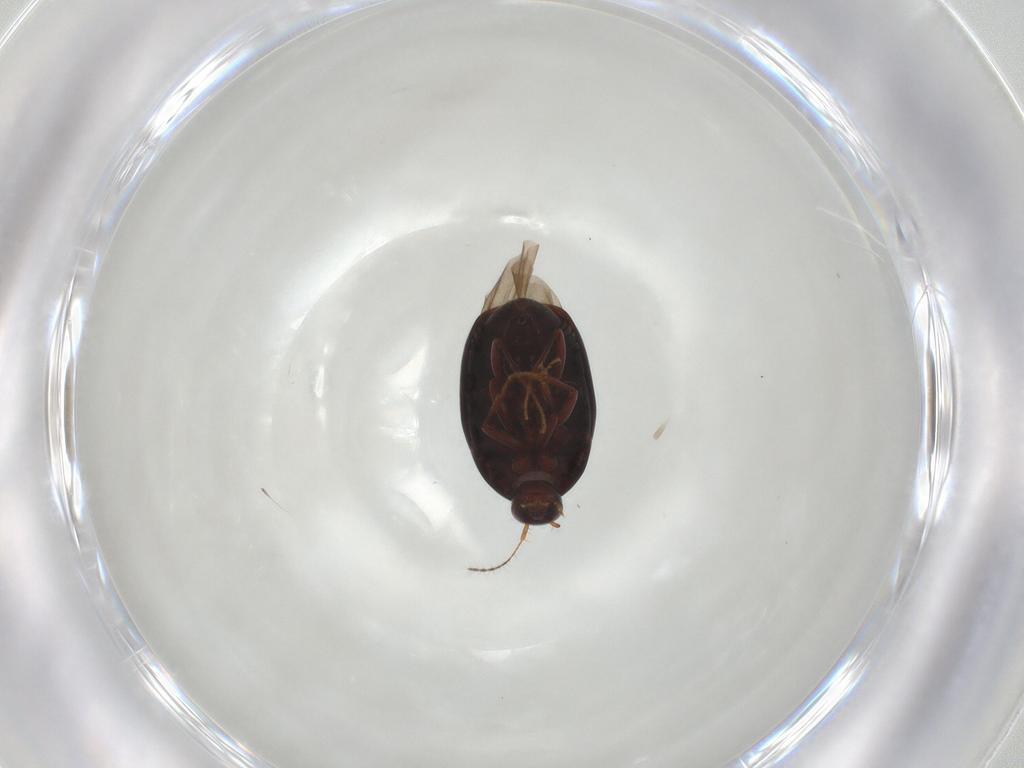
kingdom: Animalia
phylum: Arthropoda
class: Insecta
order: Coleoptera
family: Staphylinidae
